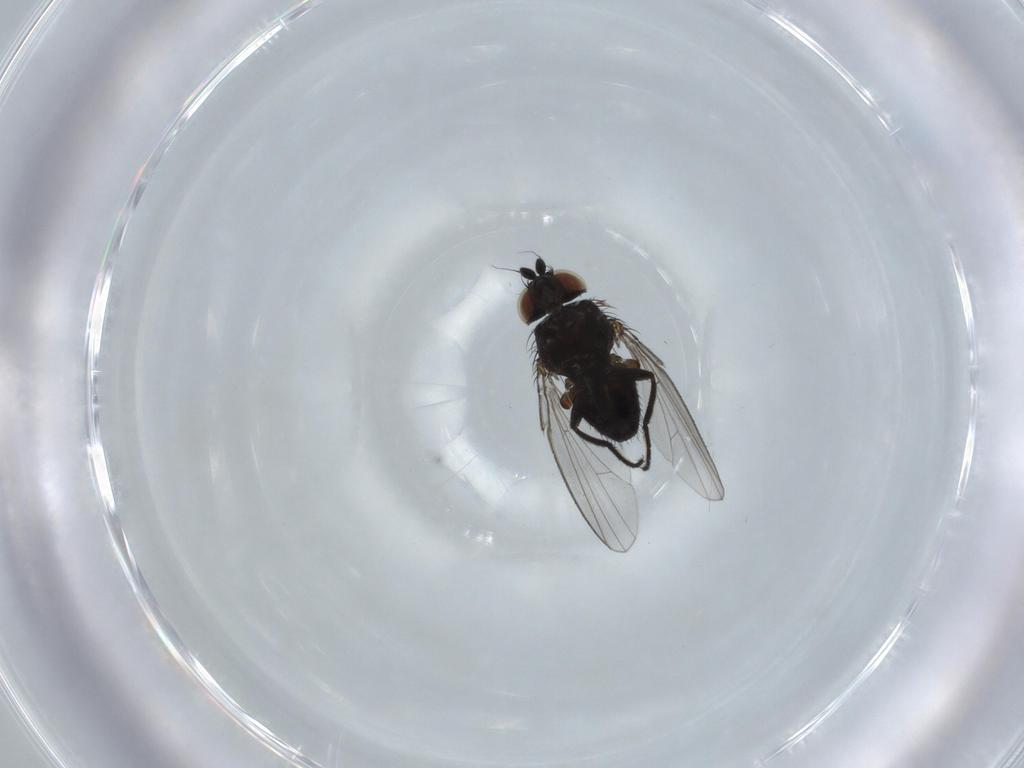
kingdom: Animalia
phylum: Arthropoda
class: Insecta
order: Diptera
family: Milichiidae
